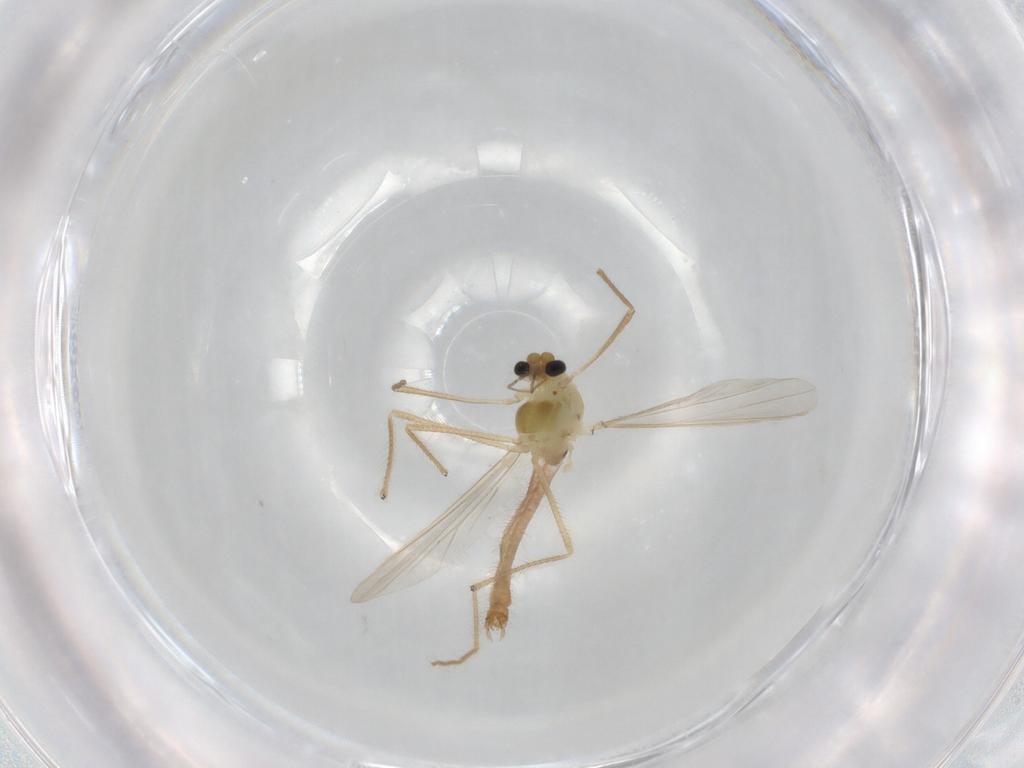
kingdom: Animalia
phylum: Arthropoda
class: Insecta
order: Diptera
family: Chironomidae
